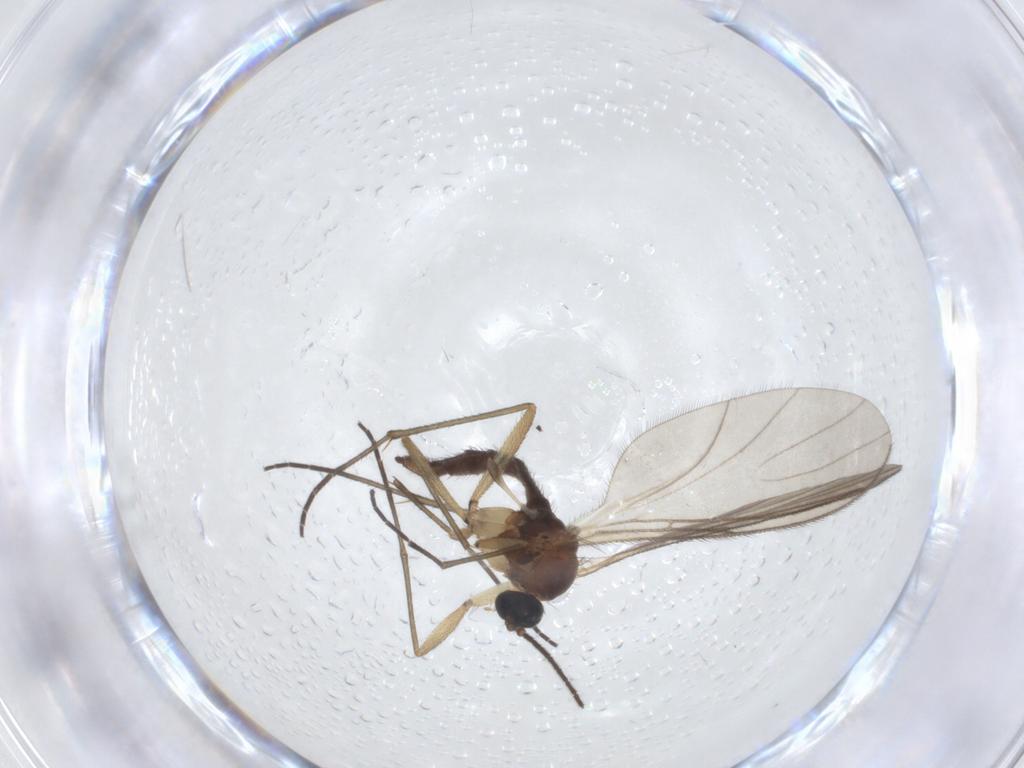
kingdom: Animalia
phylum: Arthropoda
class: Insecta
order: Diptera
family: Sciaridae
